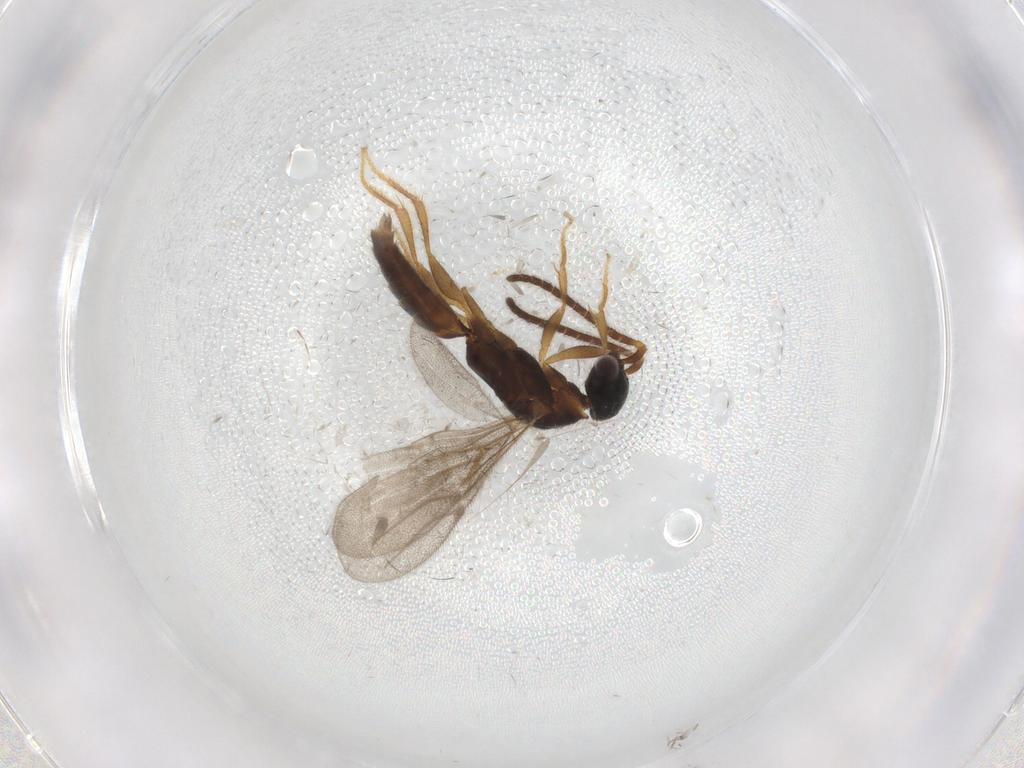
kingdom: Animalia
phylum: Arthropoda
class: Insecta
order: Hymenoptera
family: Bethylidae
